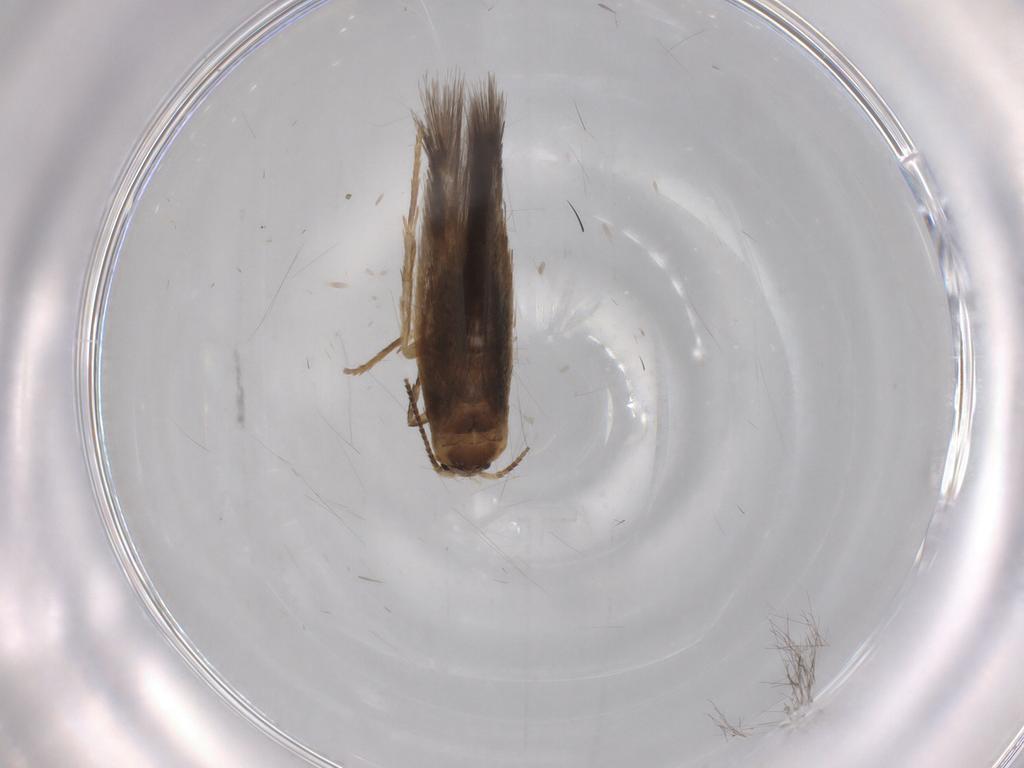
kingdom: Animalia
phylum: Arthropoda
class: Insecta
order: Lepidoptera
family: Nepticulidae
